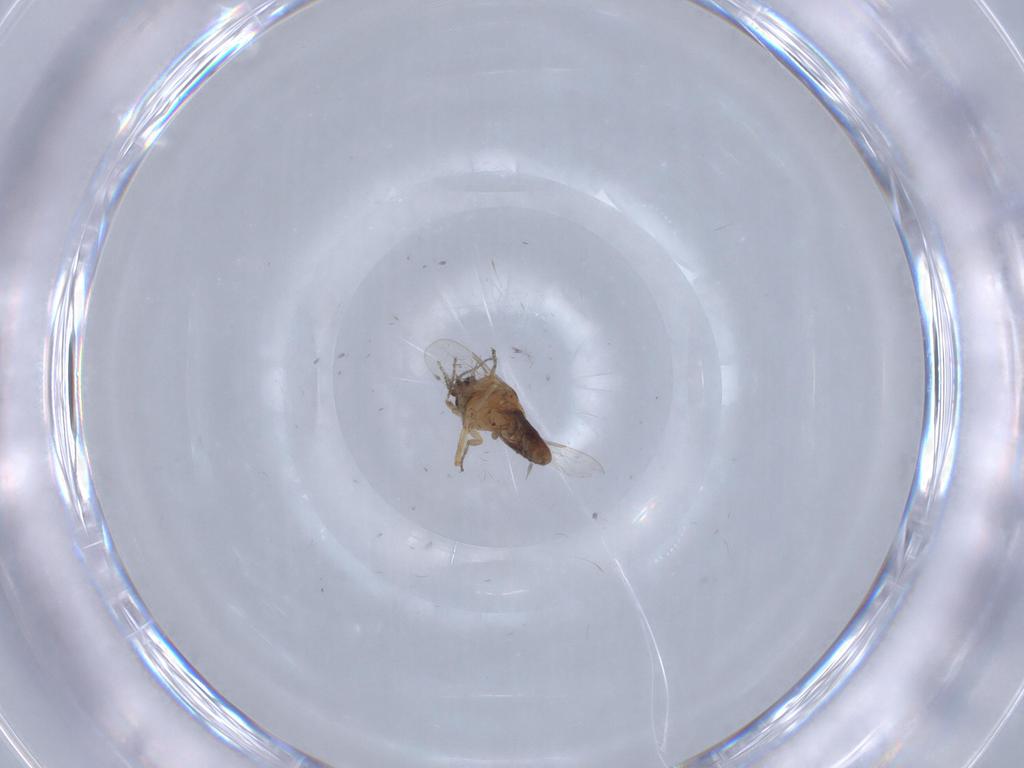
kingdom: Animalia
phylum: Arthropoda
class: Insecta
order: Diptera
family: Ceratopogonidae
